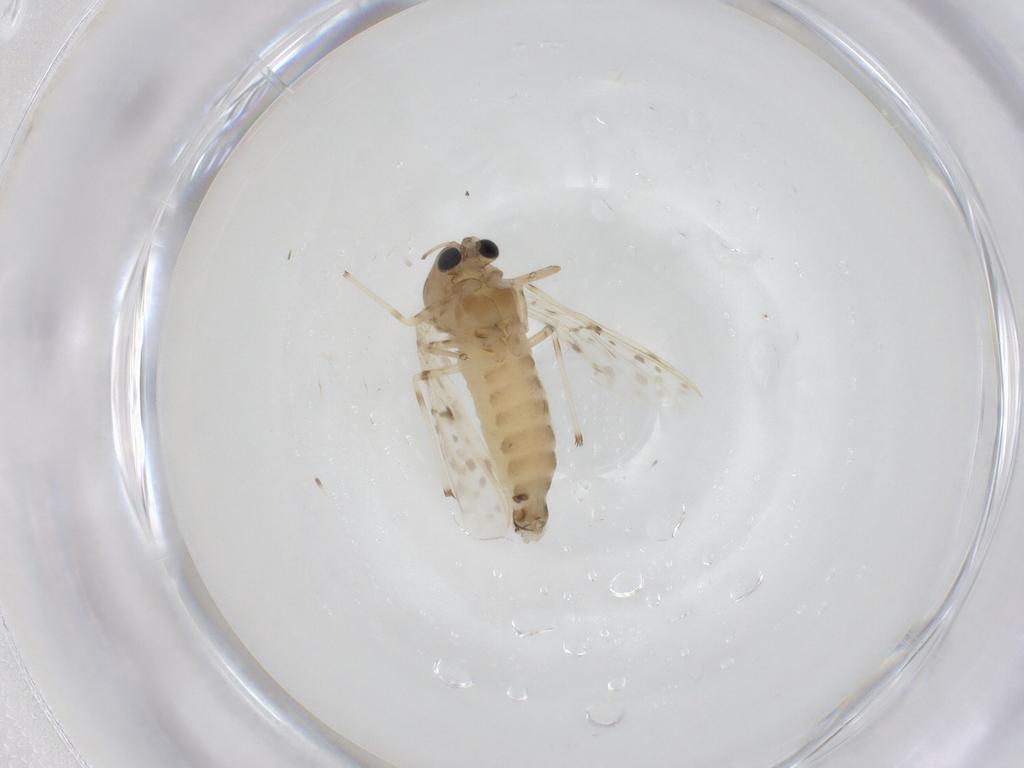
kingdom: Animalia
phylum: Arthropoda
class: Insecta
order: Diptera
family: Chironomidae
